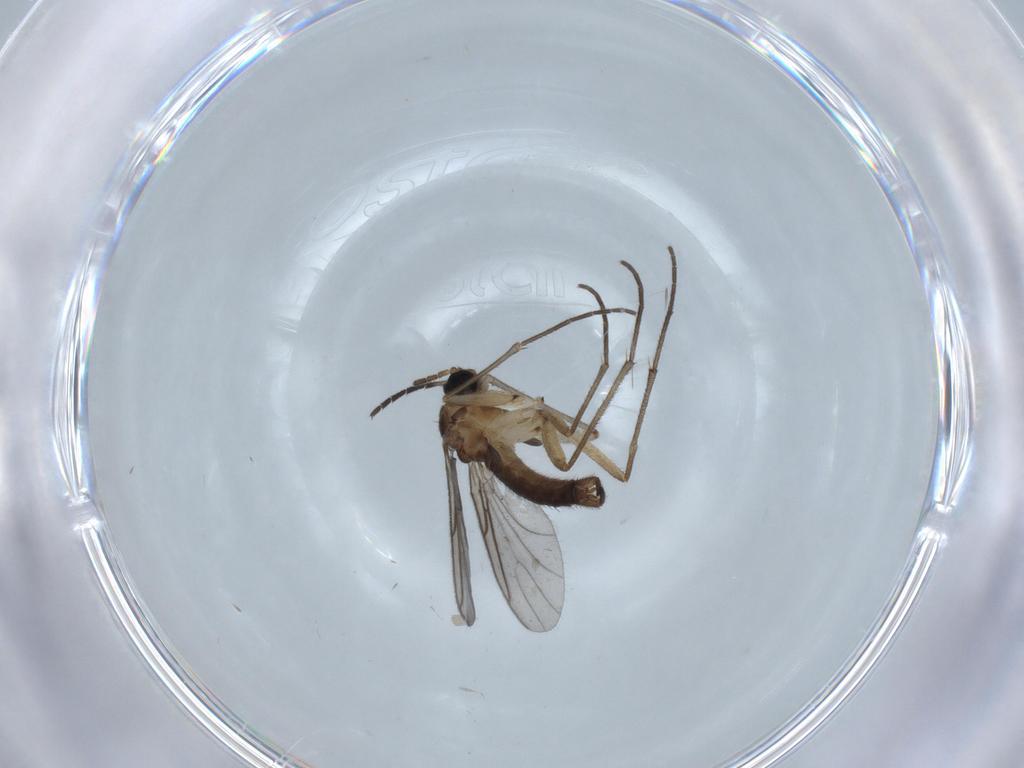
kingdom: Animalia
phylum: Arthropoda
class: Insecta
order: Diptera
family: Sciaridae
